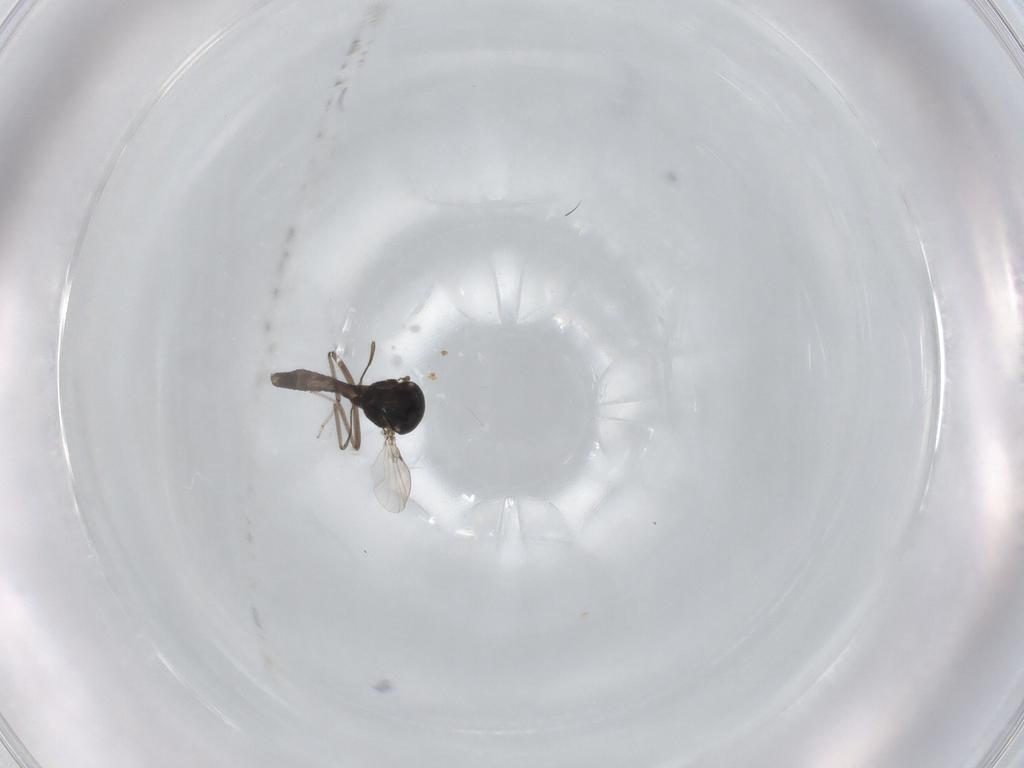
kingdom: Animalia
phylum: Arthropoda
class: Insecta
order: Diptera
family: Ceratopogonidae
